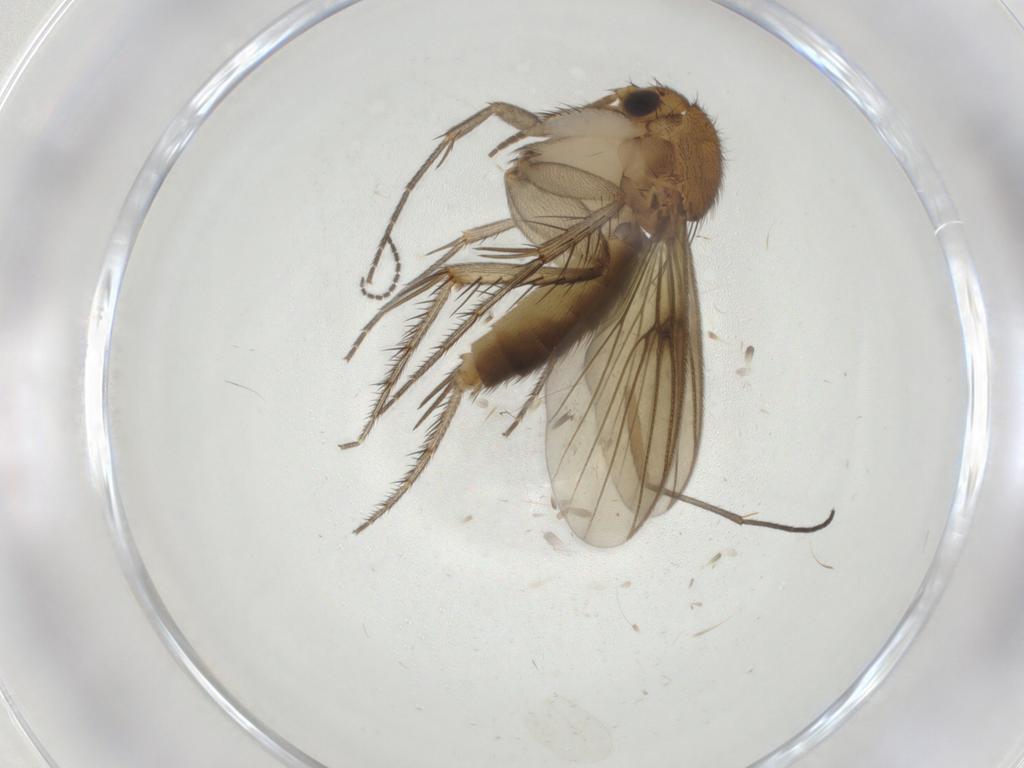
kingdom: Animalia
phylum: Arthropoda
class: Insecta
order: Diptera
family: Mycetophilidae
